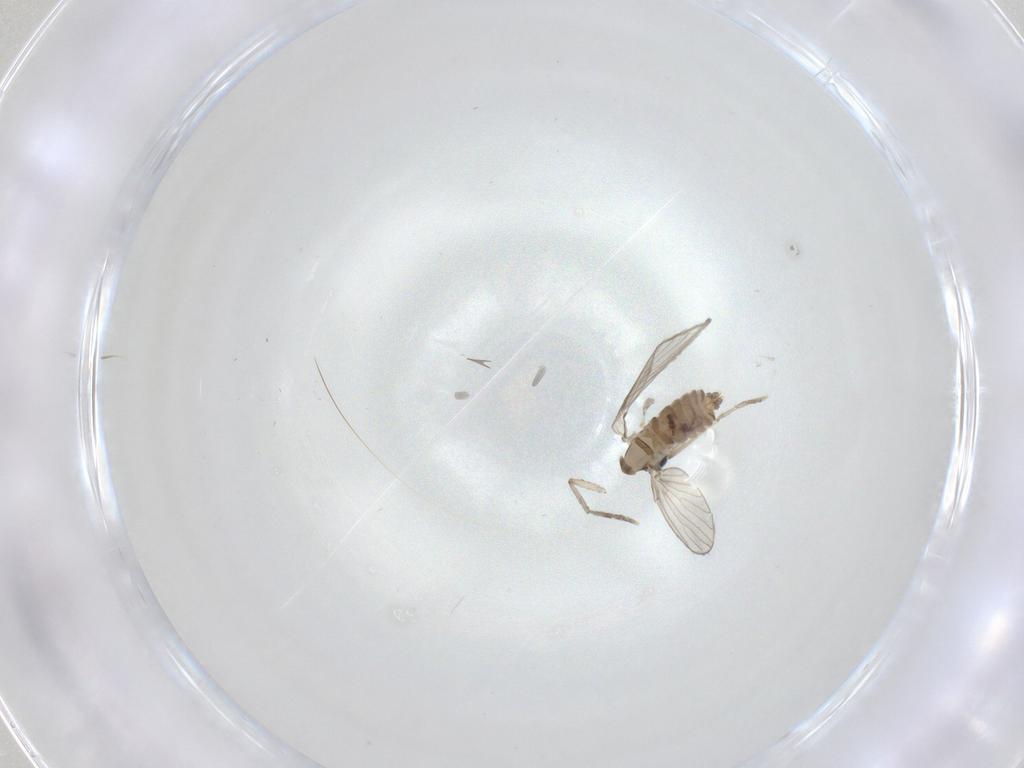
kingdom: Animalia
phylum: Arthropoda
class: Insecta
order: Diptera
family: Psychodidae
